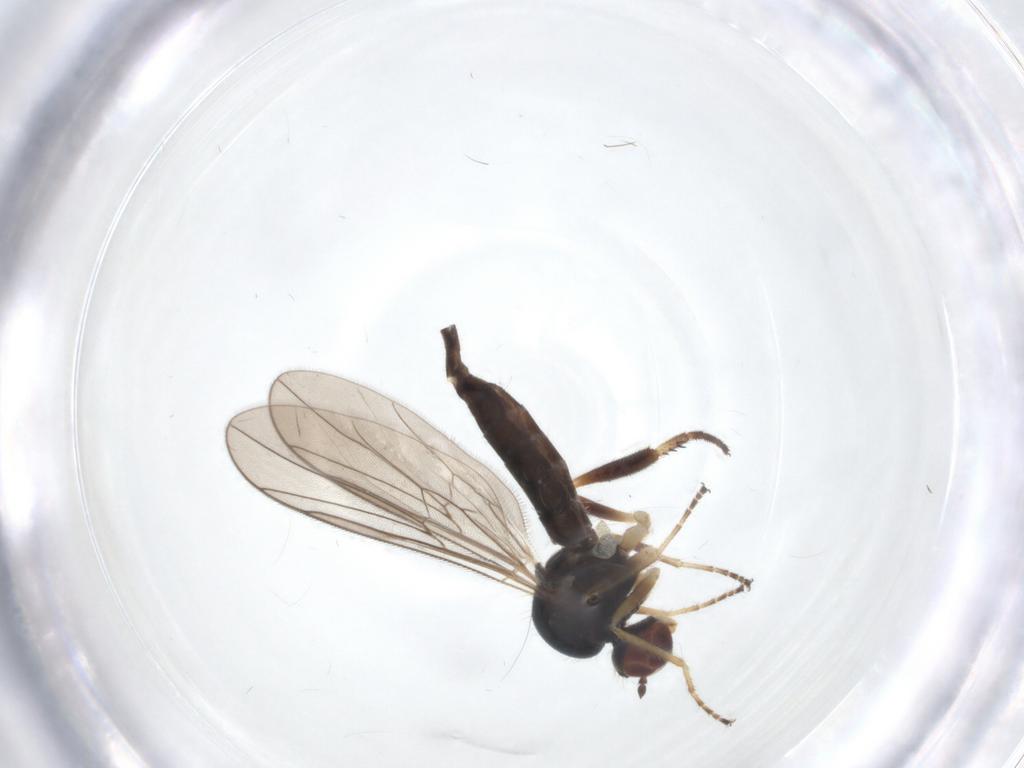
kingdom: Animalia
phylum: Arthropoda
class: Insecta
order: Diptera
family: Hybotidae
